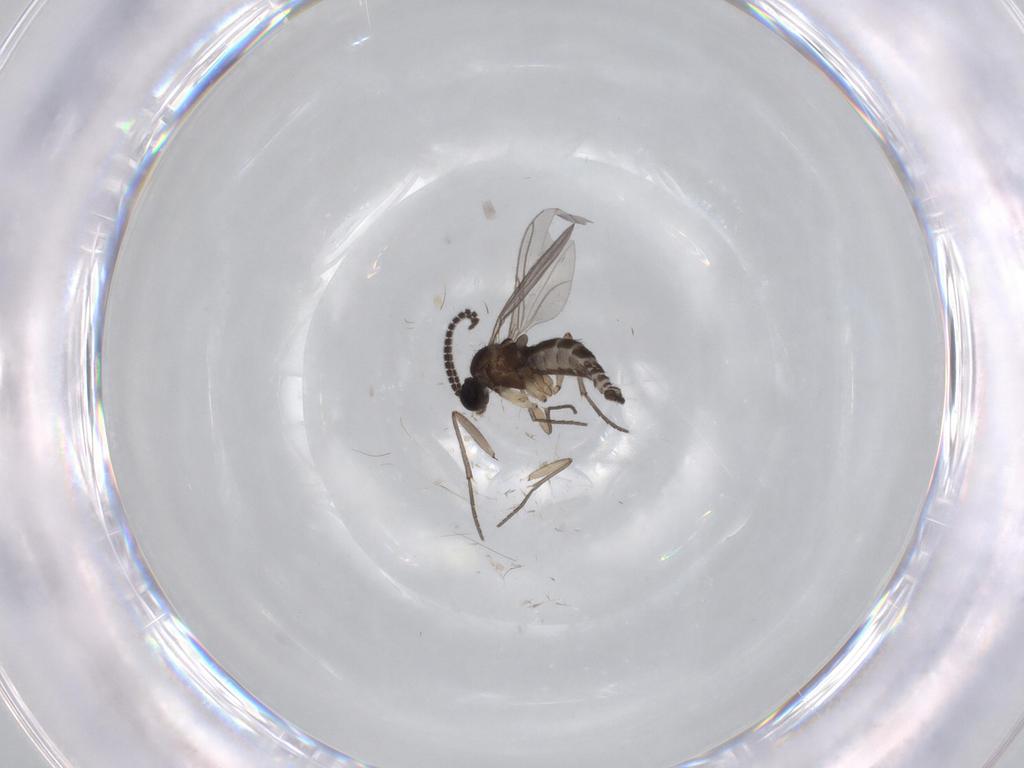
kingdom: Animalia
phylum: Arthropoda
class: Insecta
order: Diptera
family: Sciaridae
